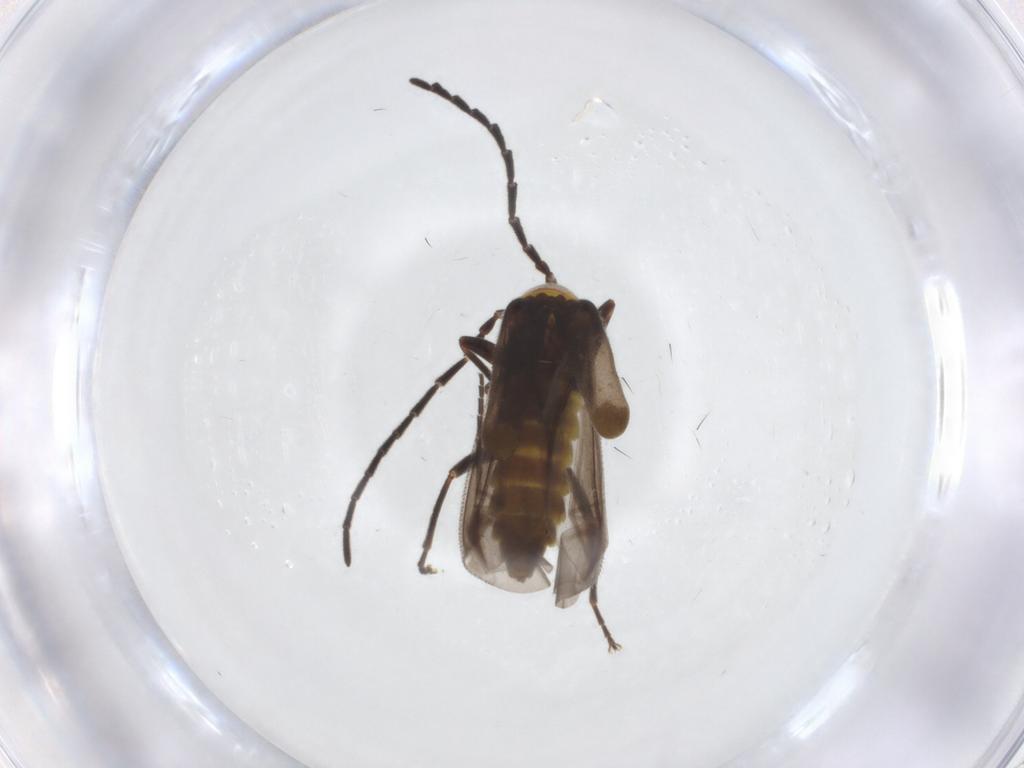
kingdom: Animalia
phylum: Arthropoda
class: Insecta
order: Coleoptera
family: Cantharidae
